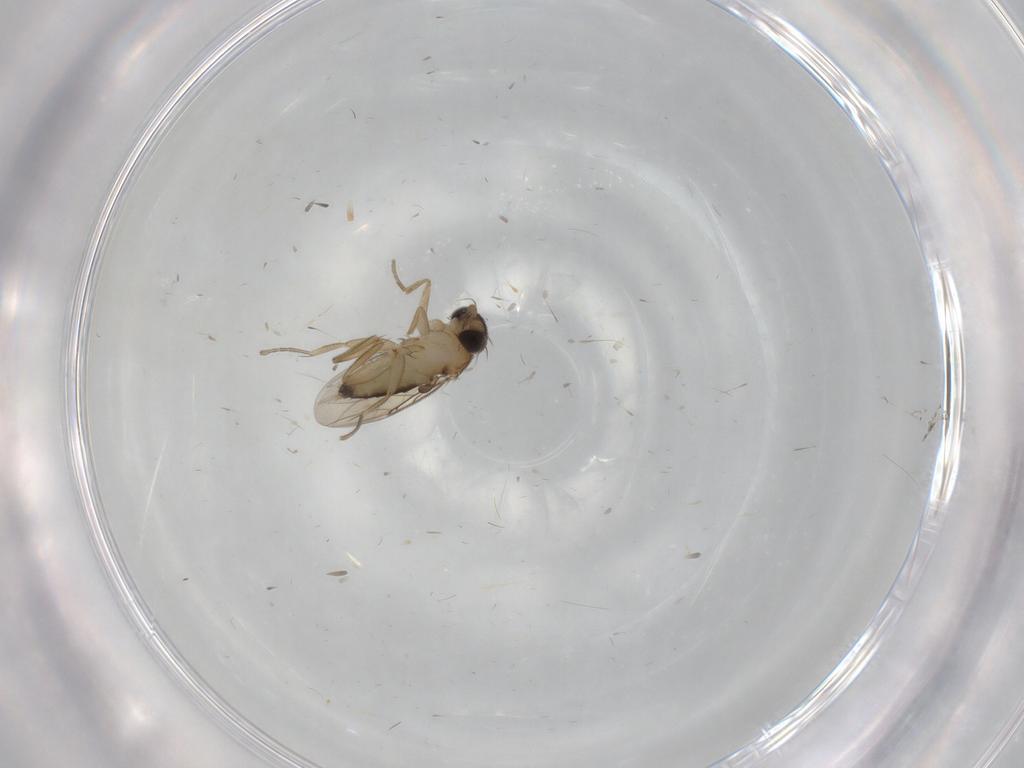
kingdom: Animalia
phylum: Arthropoda
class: Insecta
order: Diptera
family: Phoridae
